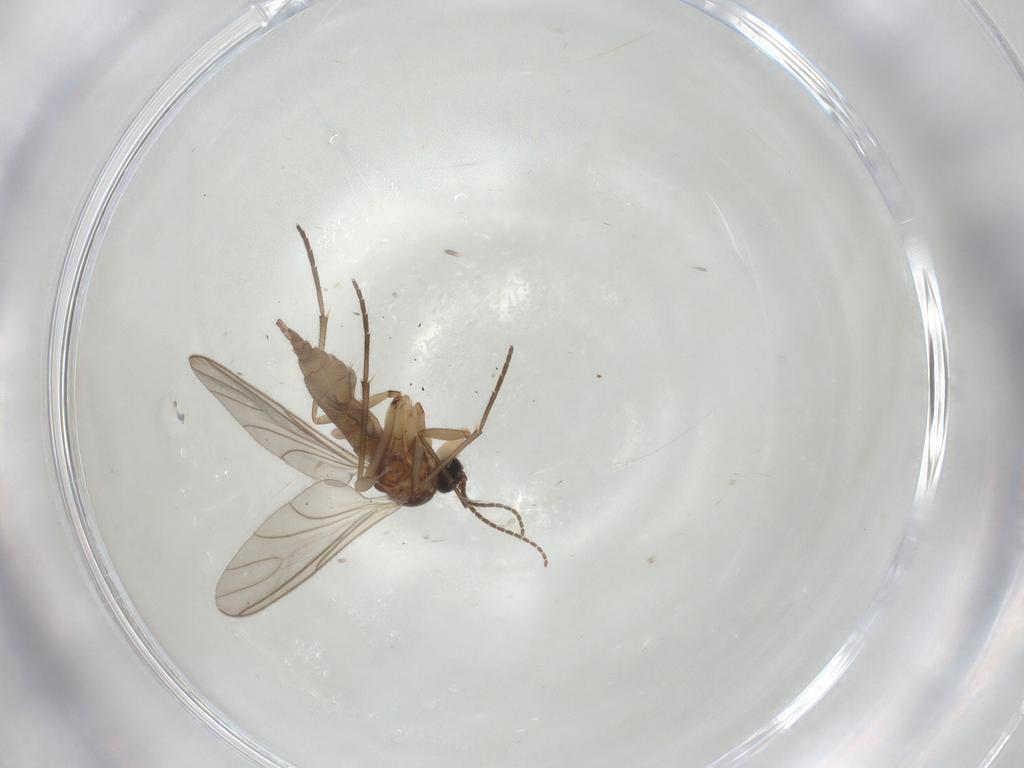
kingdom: Animalia
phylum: Arthropoda
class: Insecta
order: Diptera
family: Sciaridae
